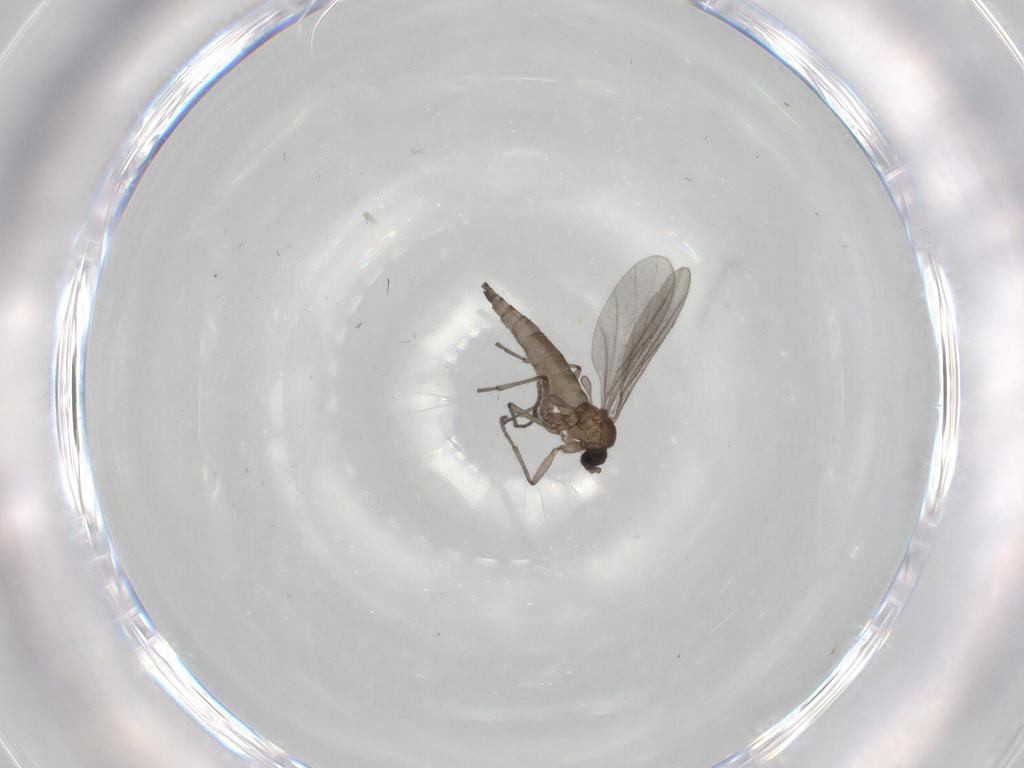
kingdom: Animalia
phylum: Arthropoda
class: Insecta
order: Diptera
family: Sciaridae
